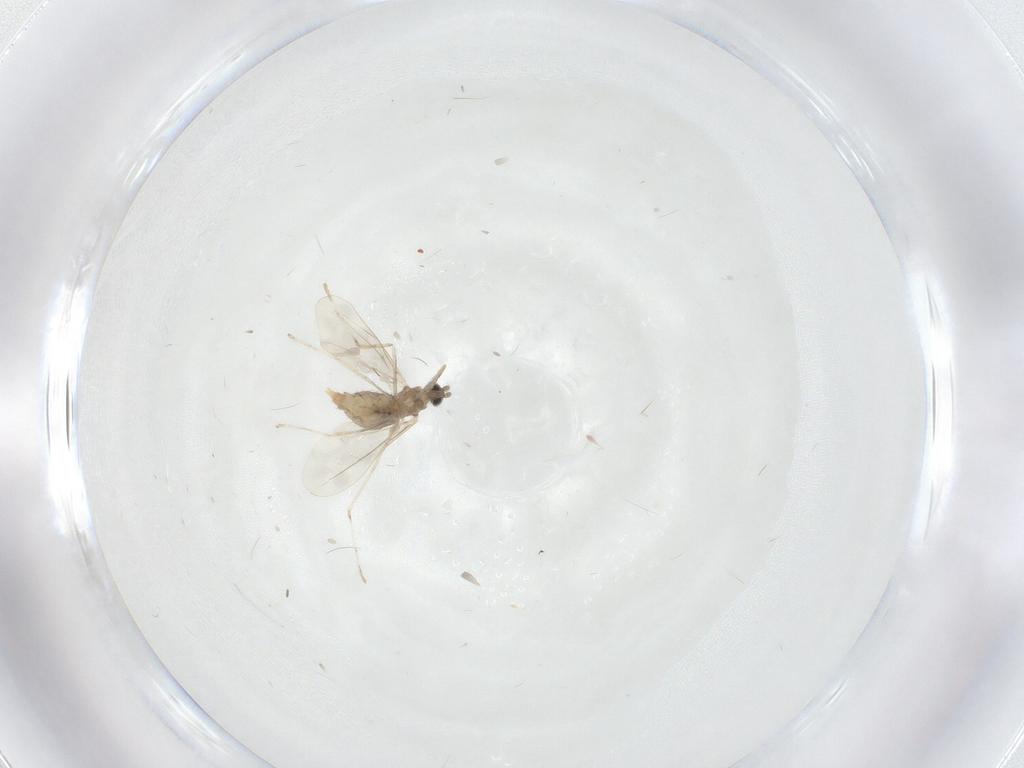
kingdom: Animalia
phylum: Arthropoda
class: Insecta
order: Diptera
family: Cecidomyiidae
